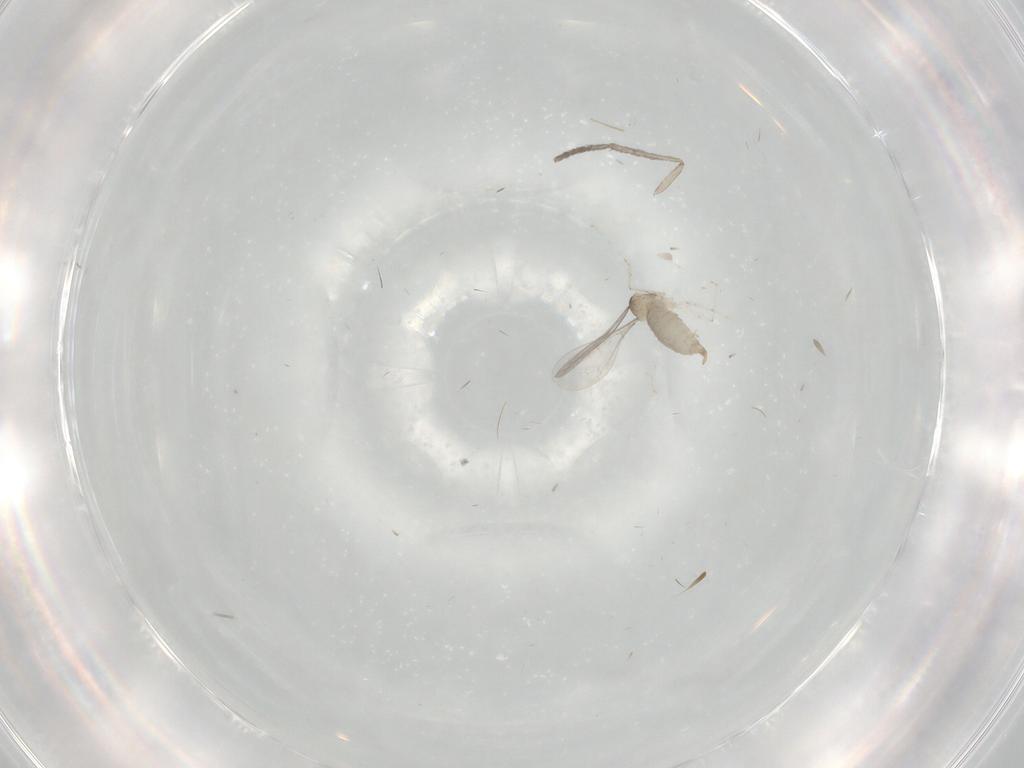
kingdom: Animalia
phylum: Arthropoda
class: Insecta
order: Diptera
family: Psychodidae
